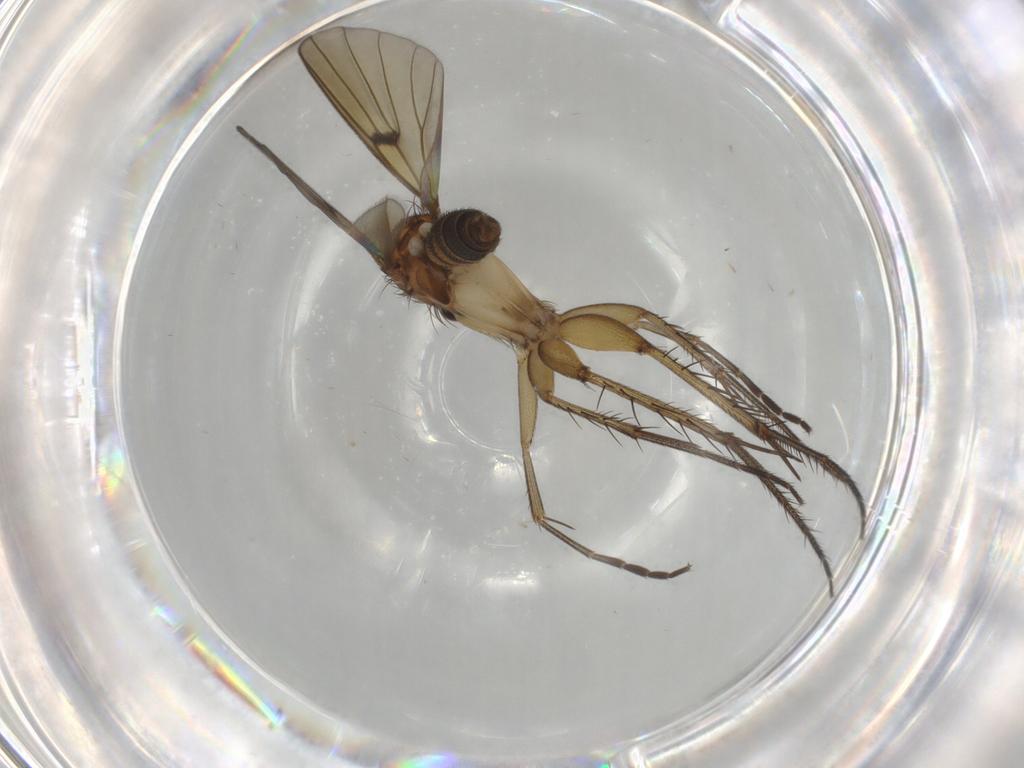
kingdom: Animalia
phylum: Arthropoda
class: Insecta
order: Diptera
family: Mycetophilidae
